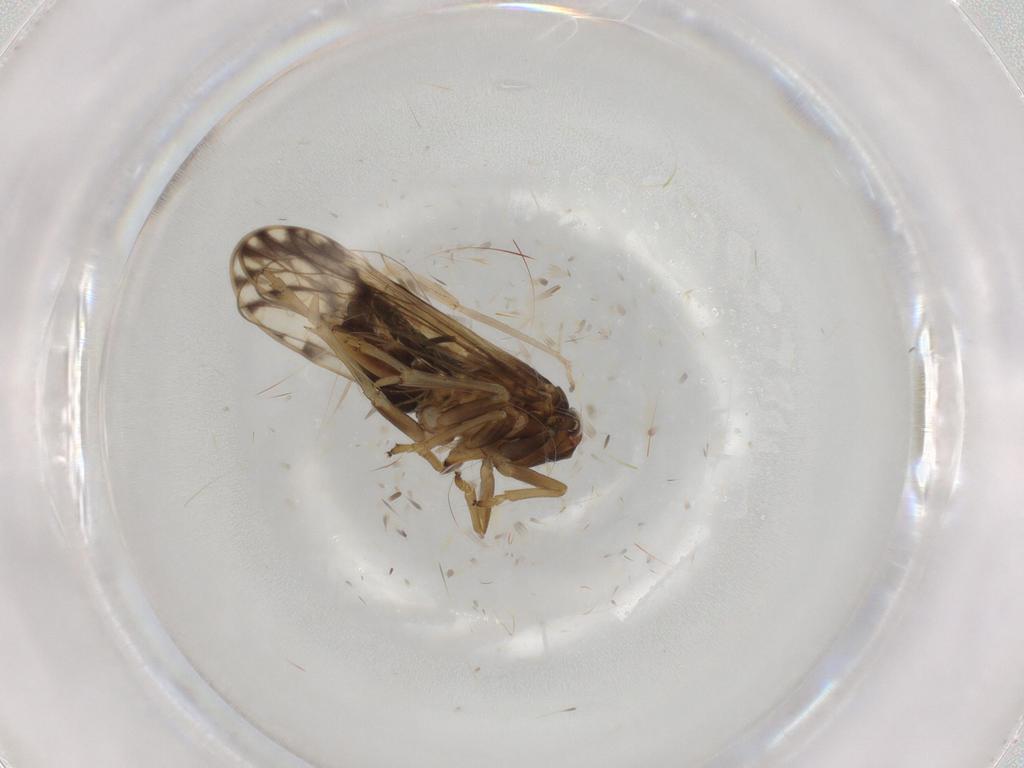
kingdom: Animalia
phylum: Arthropoda
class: Insecta
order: Hemiptera
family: Delphacidae
